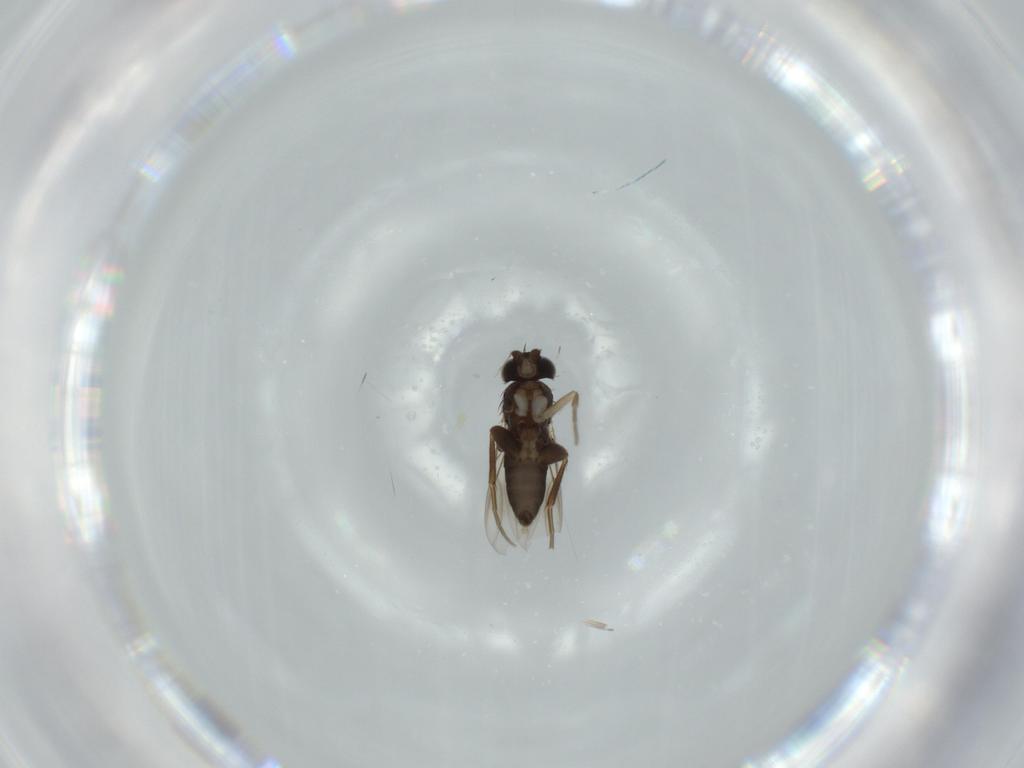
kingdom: Animalia
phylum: Arthropoda
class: Insecta
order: Diptera
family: Phoridae
